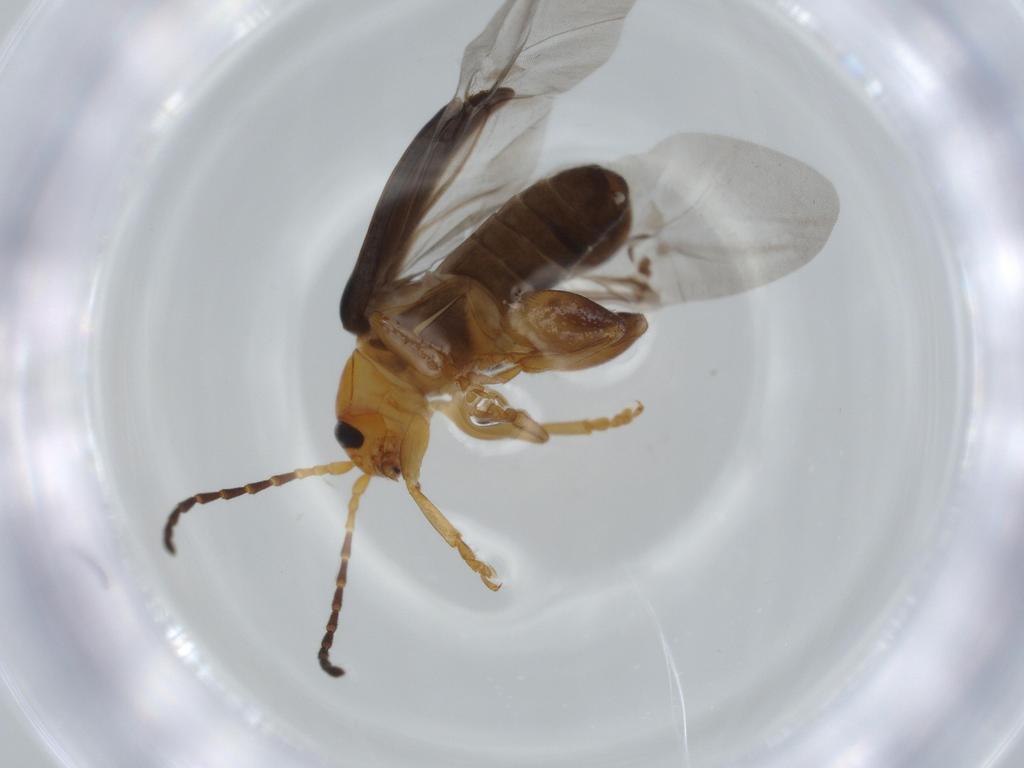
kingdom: Animalia
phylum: Arthropoda
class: Insecta
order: Coleoptera
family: Chrysomelidae
